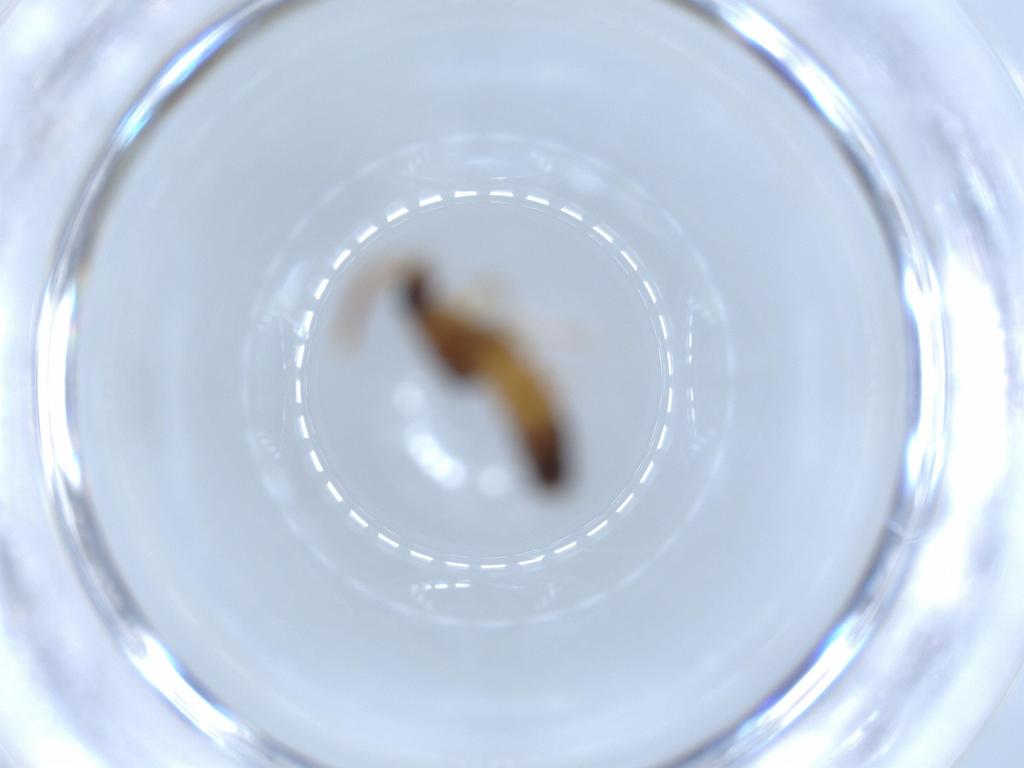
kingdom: Animalia
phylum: Arthropoda
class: Insecta
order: Coleoptera
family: Staphylinidae
